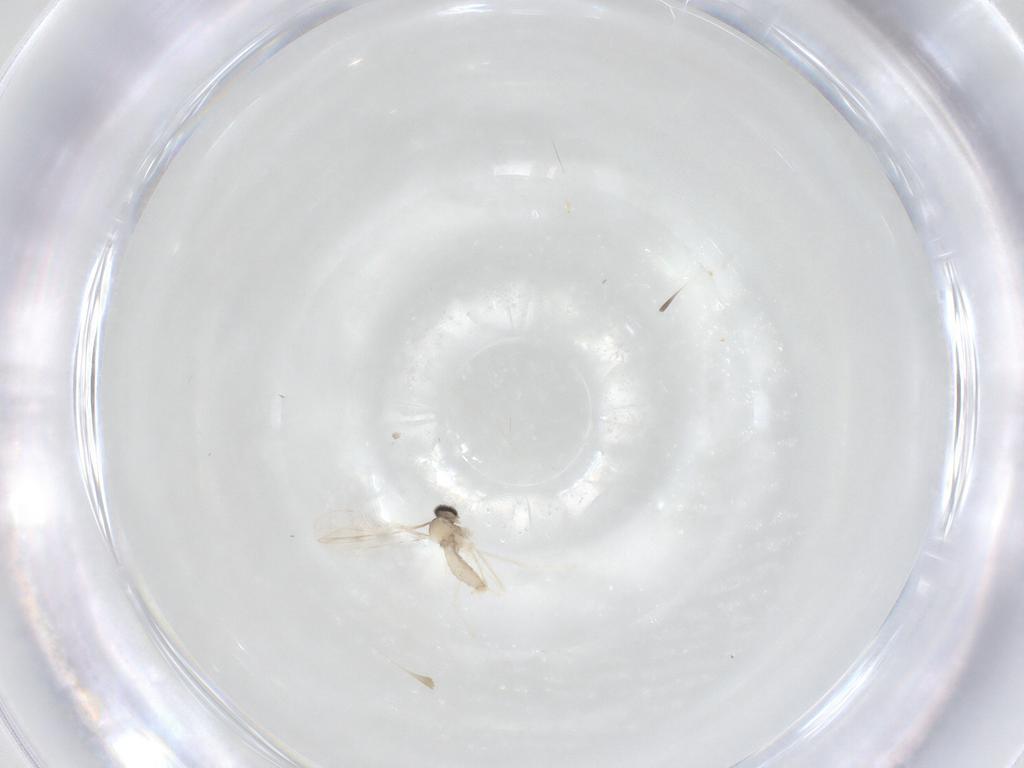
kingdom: Animalia
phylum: Arthropoda
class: Insecta
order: Diptera
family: Cecidomyiidae
